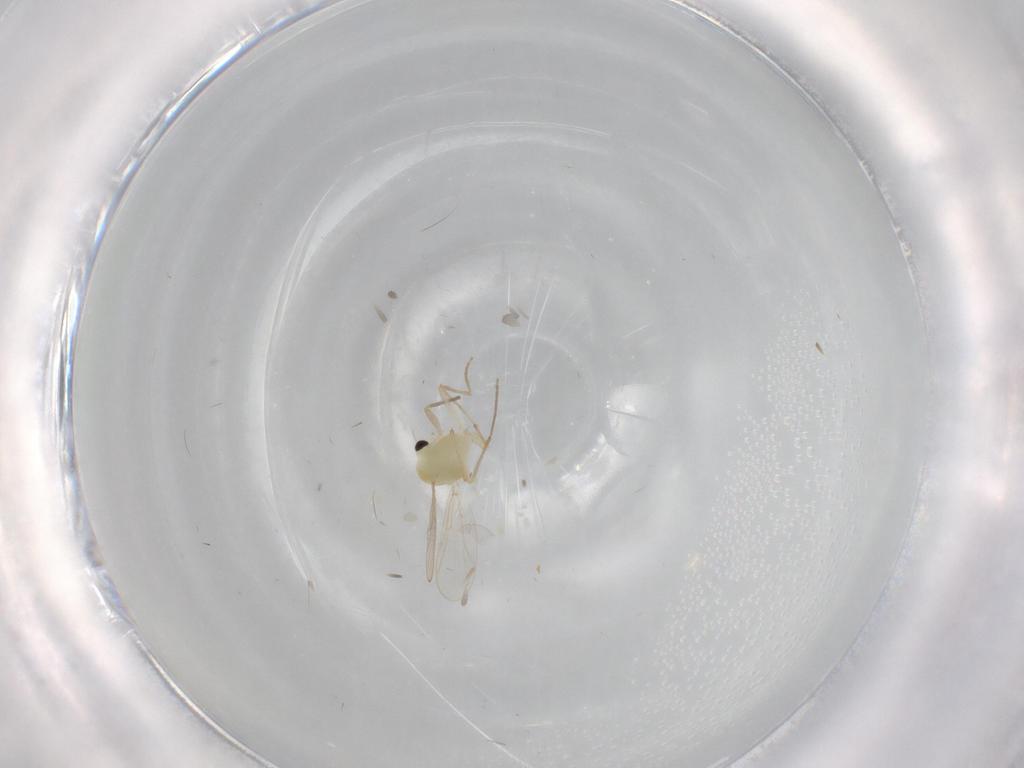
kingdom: Animalia
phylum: Arthropoda
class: Insecta
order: Diptera
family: Chironomidae
